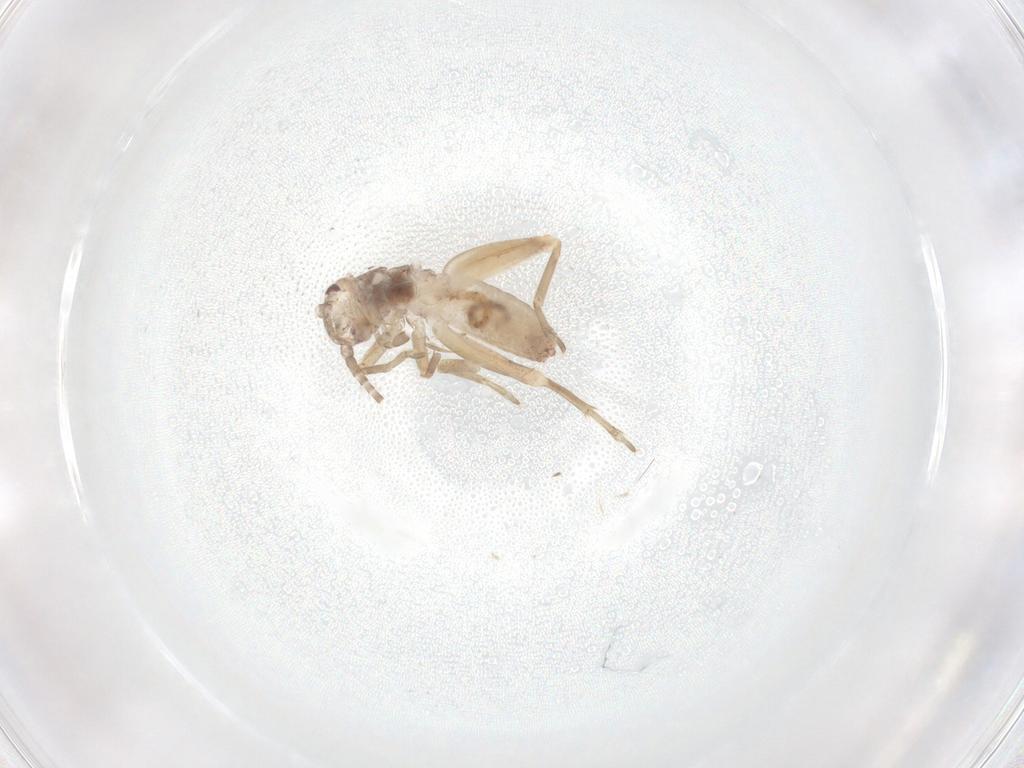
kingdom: Animalia
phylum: Arthropoda
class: Insecta
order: Orthoptera
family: Mogoplistidae
